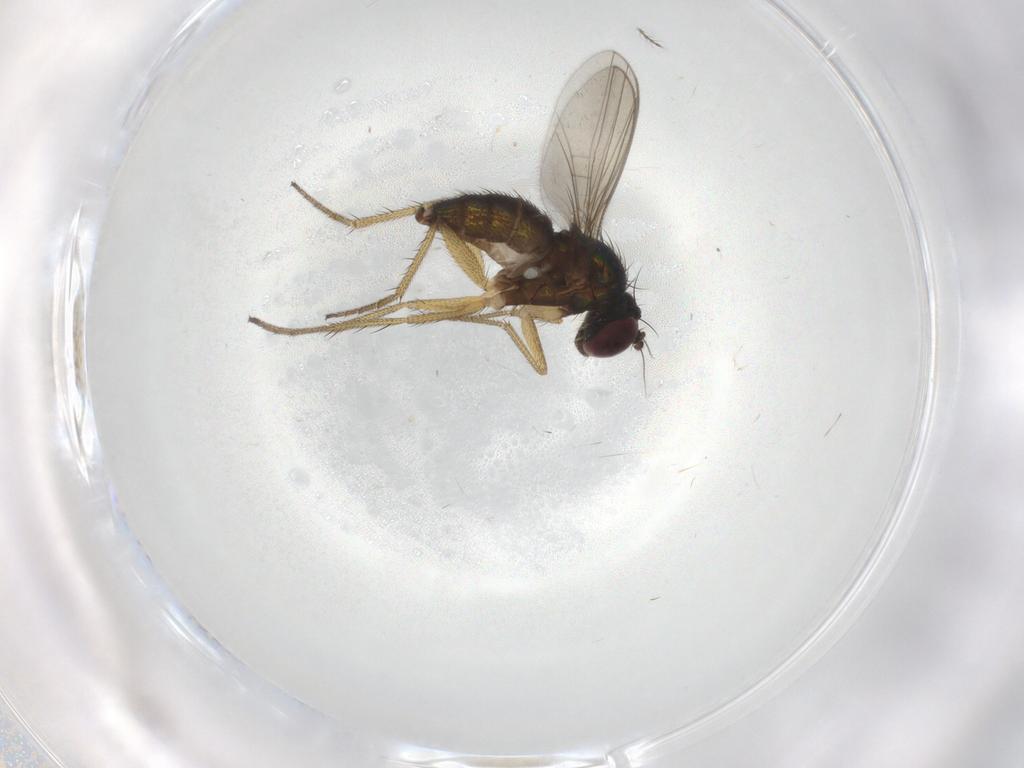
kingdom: Animalia
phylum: Arthropoda
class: Insecta
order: Diptera
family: Chironomidae
